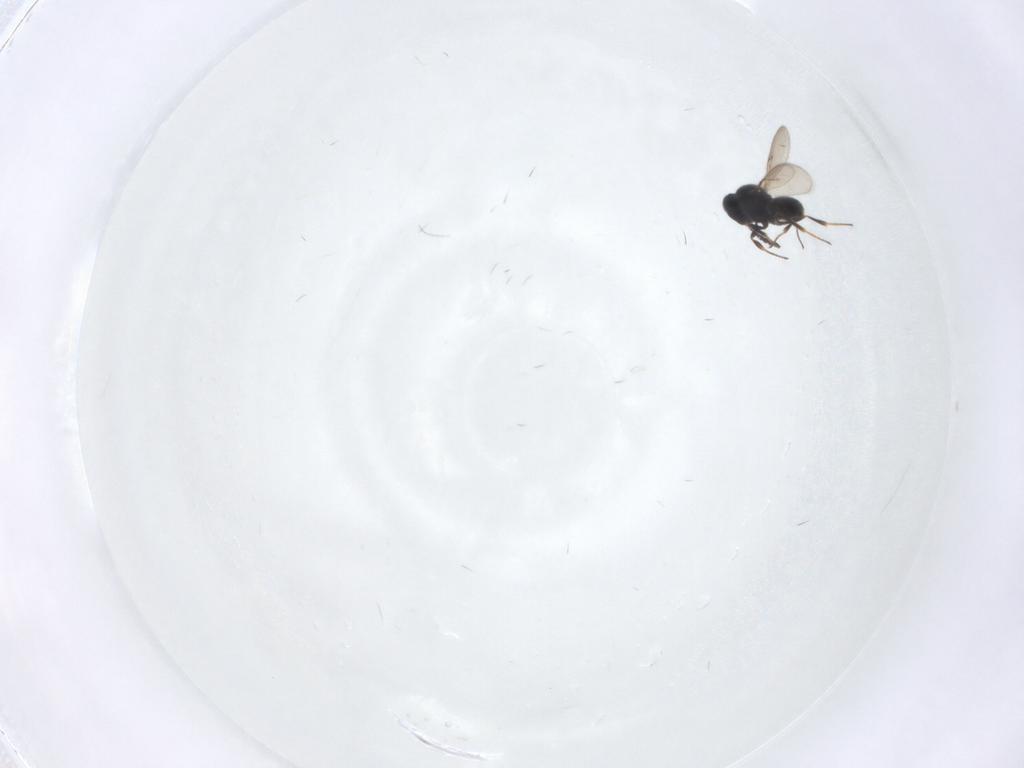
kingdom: Animalia
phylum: Arthropoda
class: Insecta
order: Hymenoptera
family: Scelionidae
